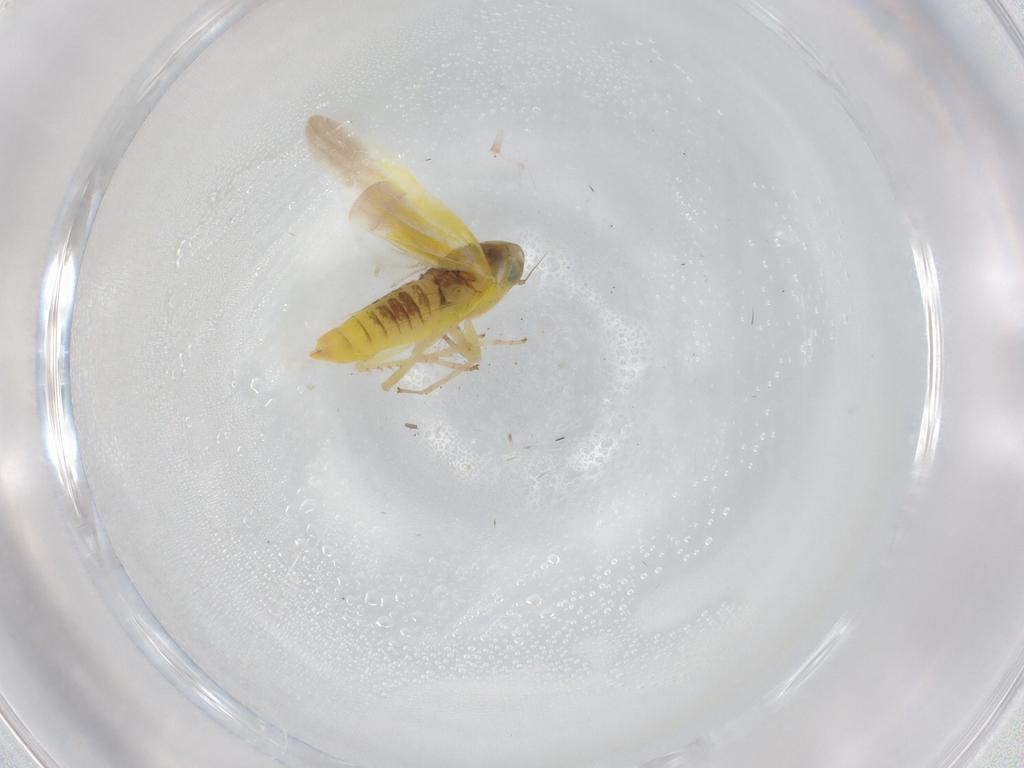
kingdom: Animalia
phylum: Arthropoda
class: Insecta
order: Hemiptera
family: Cicadellidae
